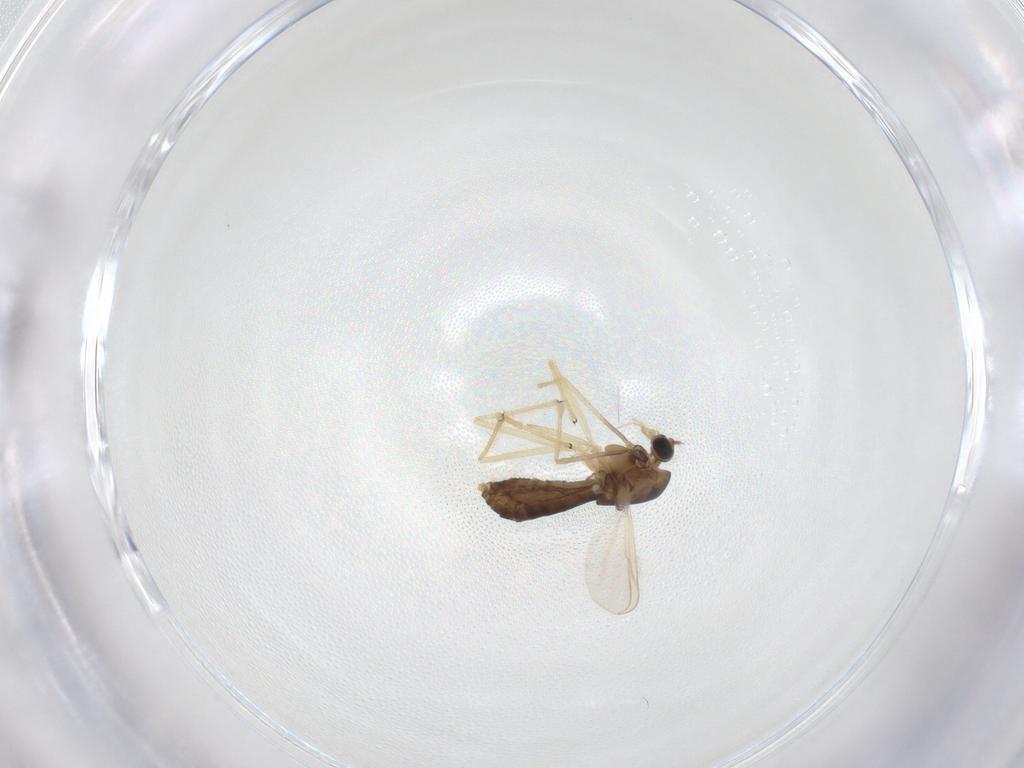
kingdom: Animalia
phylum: Arthropoda
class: Insecta
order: Diptera
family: Chironomidae
